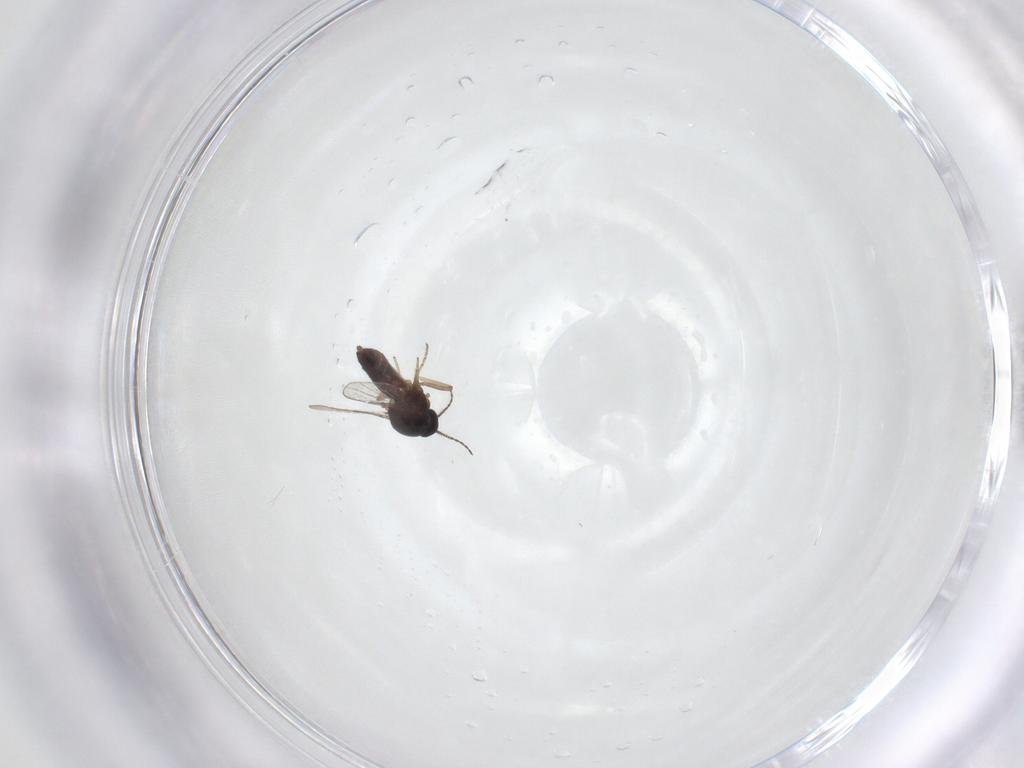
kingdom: Animalia
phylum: Arthropoda
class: Insecta
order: Diptera
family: Ceratopogonidae
